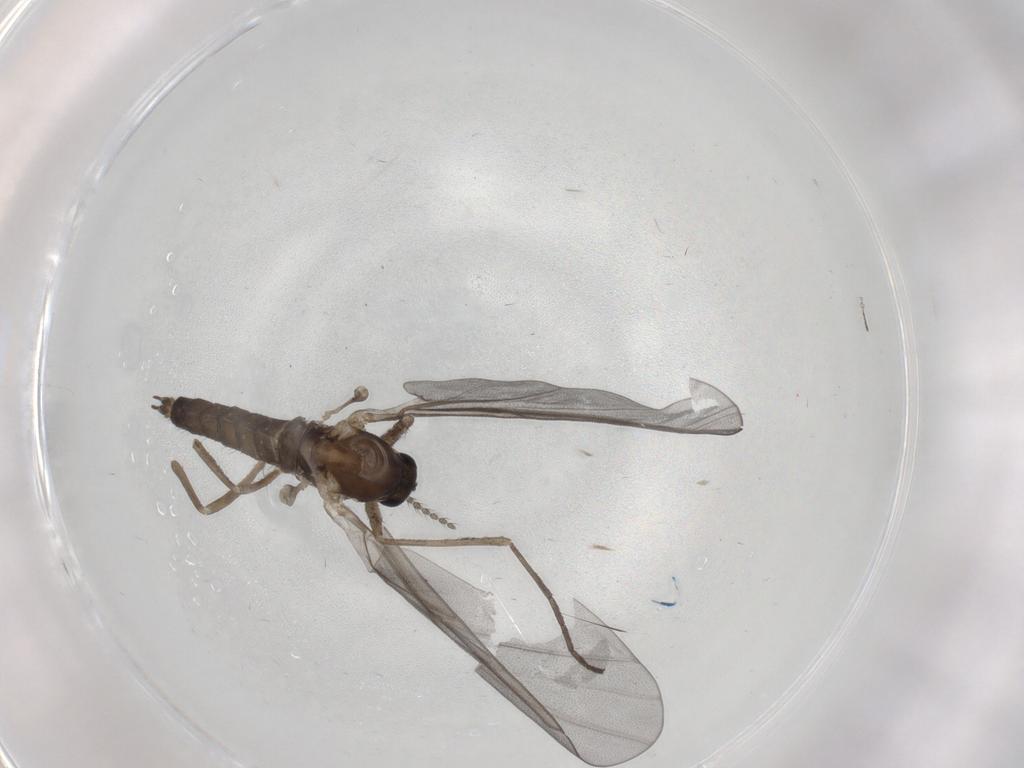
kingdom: Animalia
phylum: Arthropoda
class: Insecta
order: Diptera
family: Cecidomyiidae
